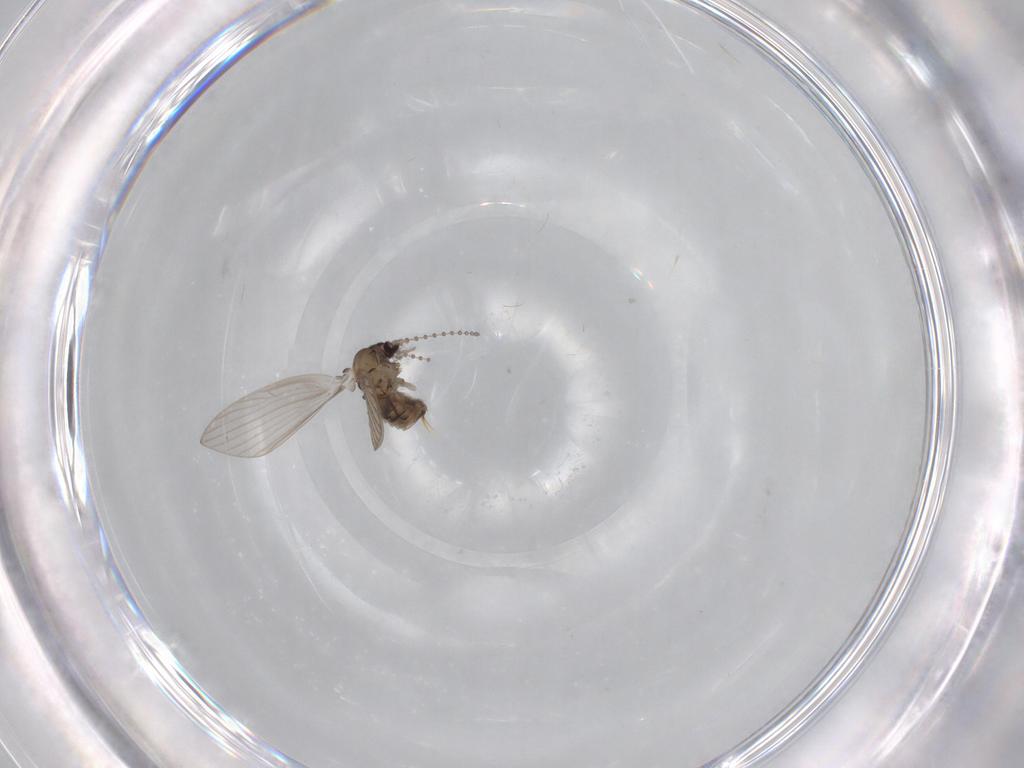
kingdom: Animalia
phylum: Arthropoda
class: Insecta
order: Diptera
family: Psychodidae
